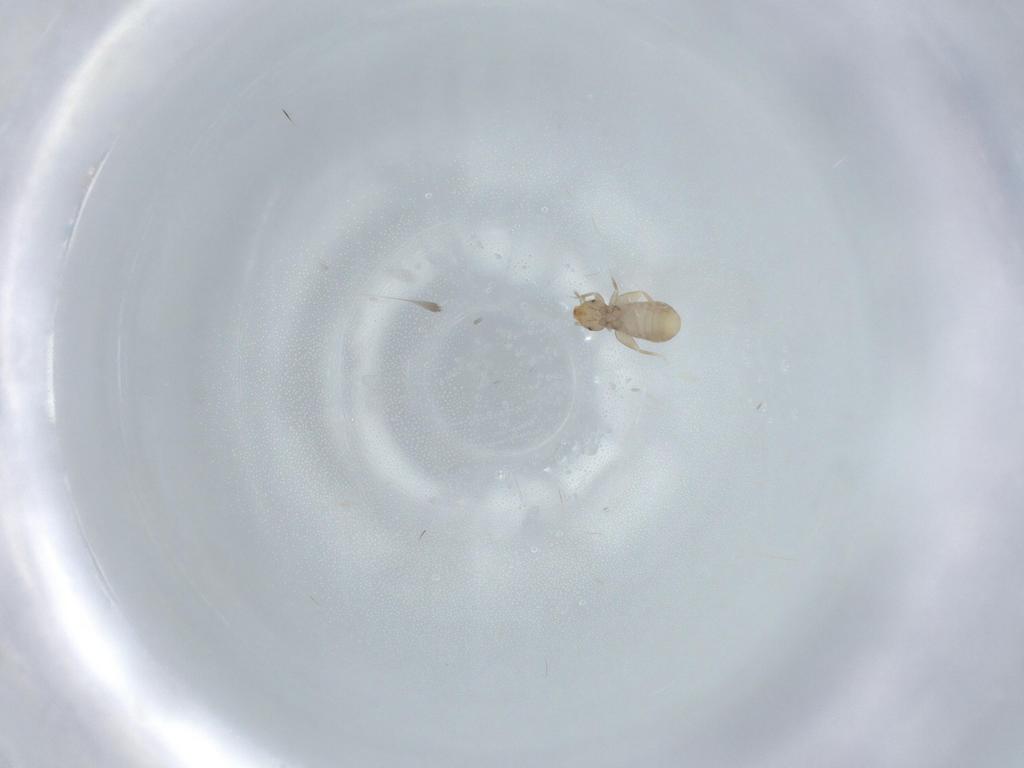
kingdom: Animalia
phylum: Arthropoda
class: Insecta
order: Psocodea
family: Liposcelididae
